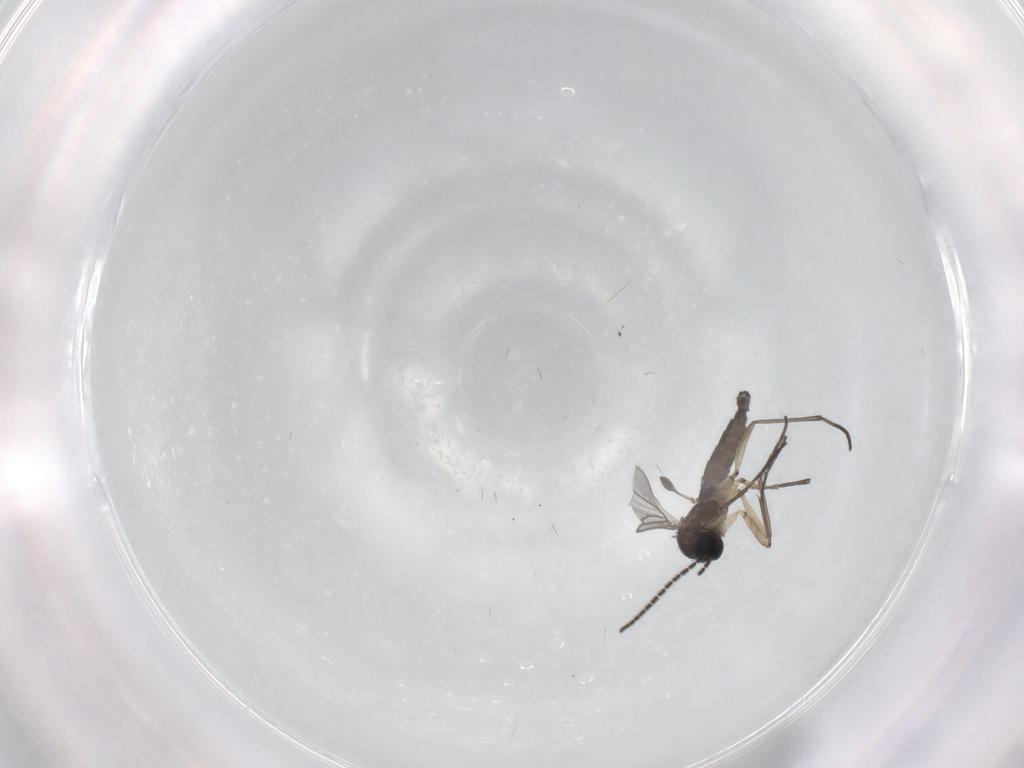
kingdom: Animalia
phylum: Arthropoda
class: Insecta
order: Diptera
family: Sciaridae
